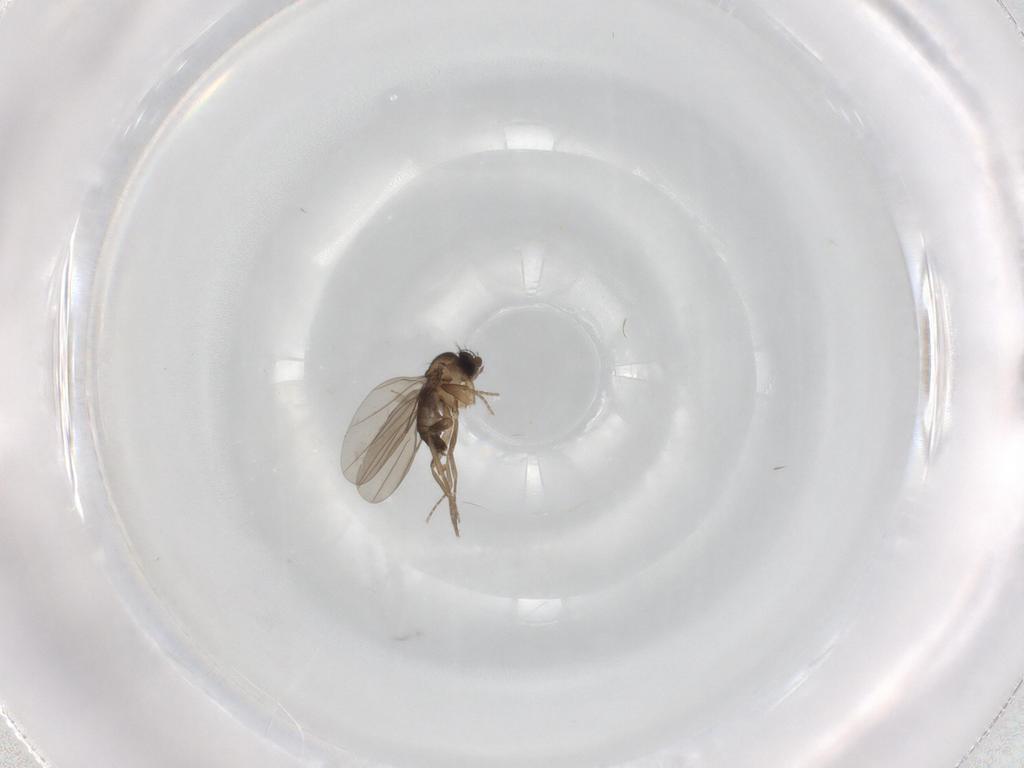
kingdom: Animalia
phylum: Arthropoda
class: Insecta
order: Diptera
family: Phoridae
